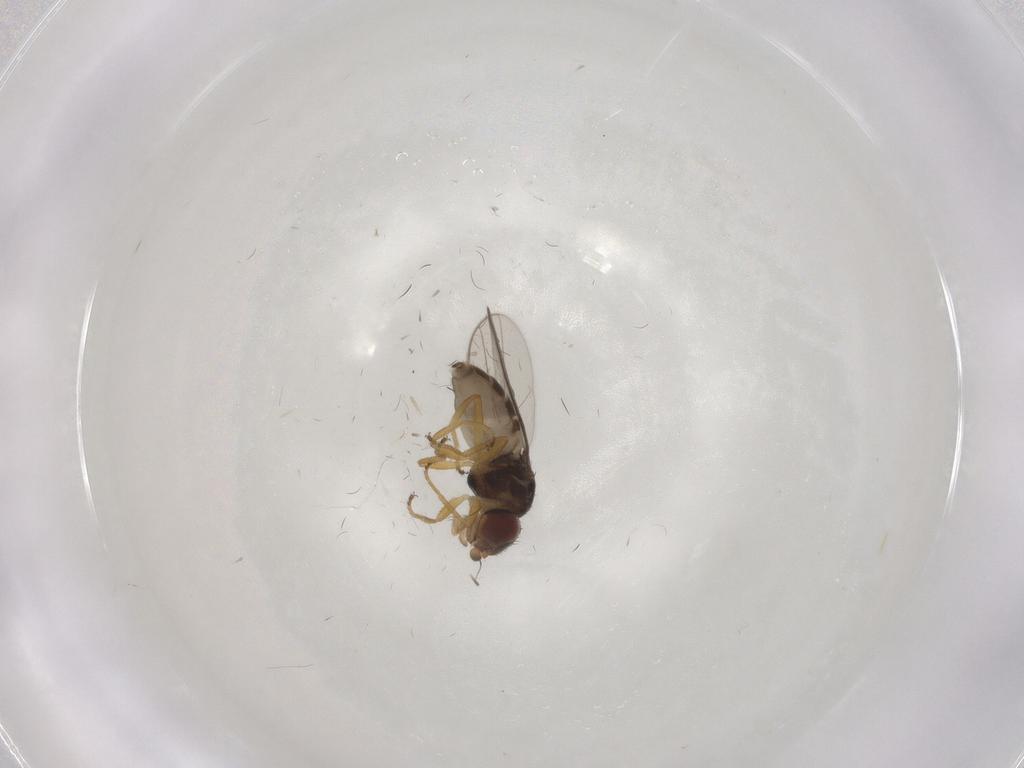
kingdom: Animalia
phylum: Arthropoda
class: Insecta
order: Diptera
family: Chloropidae
